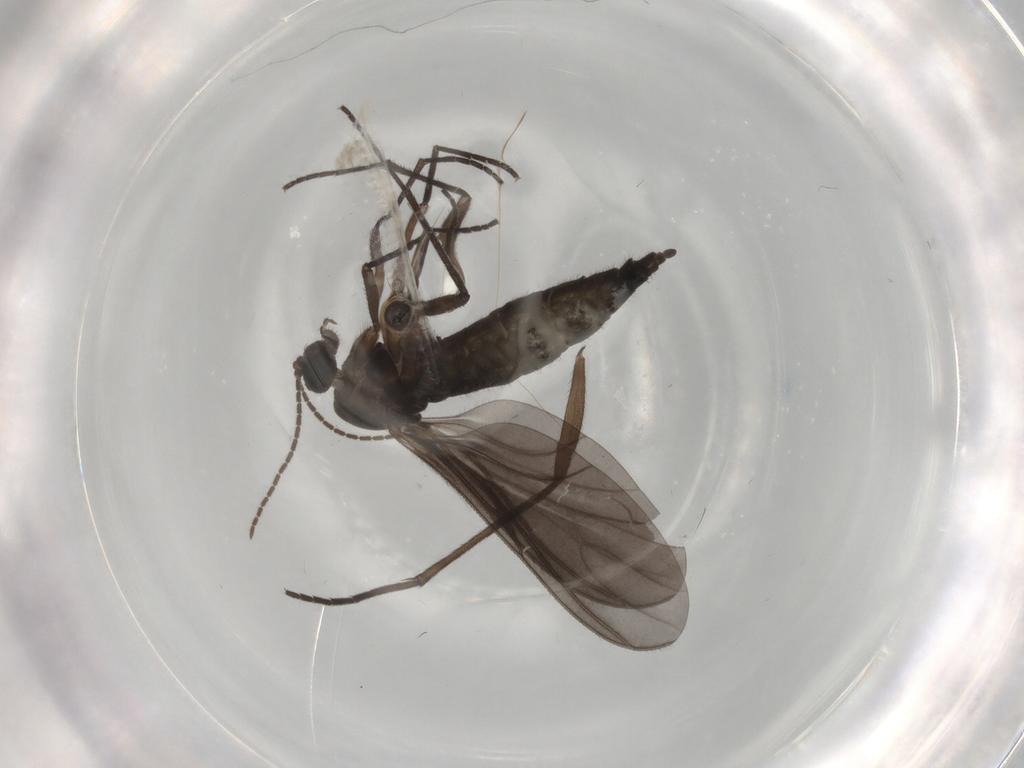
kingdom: Animalia
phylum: Arthropoda
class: Insecta
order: Diptera
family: Sciaridae
